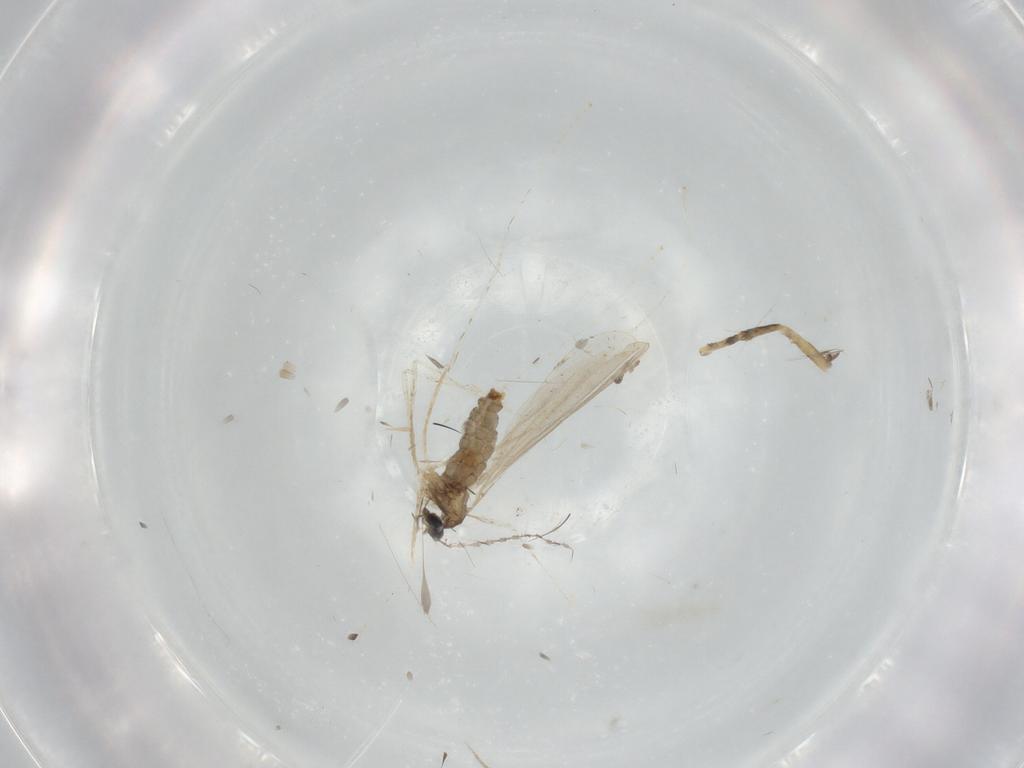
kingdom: Animalia
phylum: Arthropoda
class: Insecta
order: Diptera
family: Cecidomyiidae
